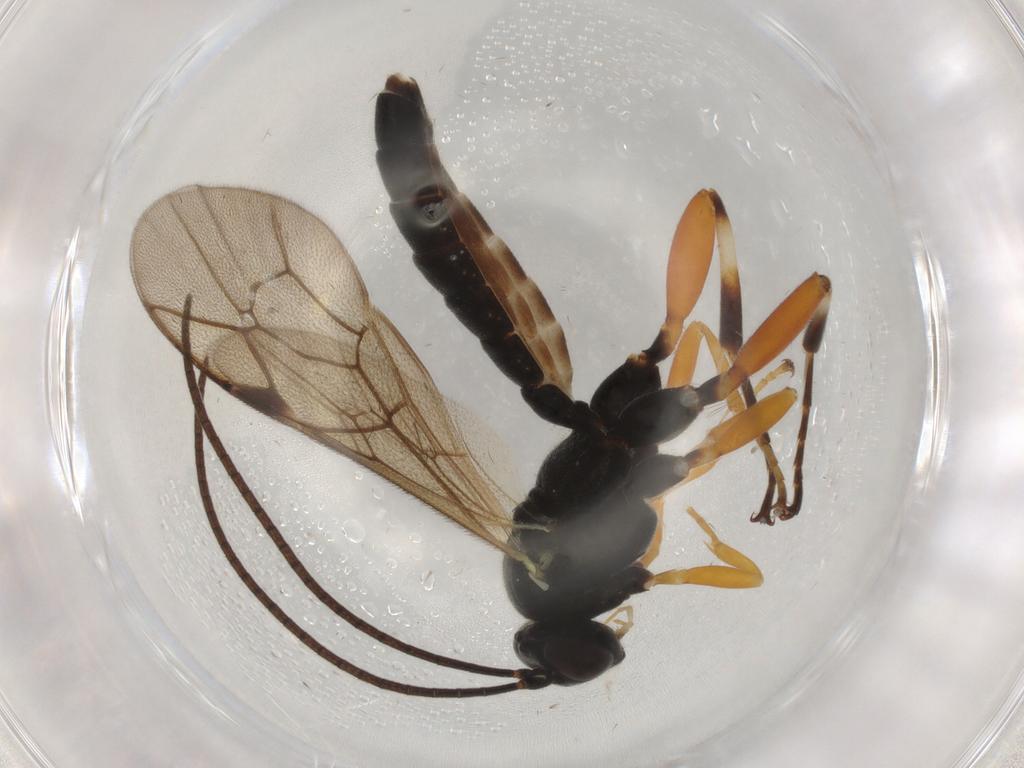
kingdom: Animalia
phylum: Arthropoda
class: Insecta
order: Hymenoptera
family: Ichneumonidae
